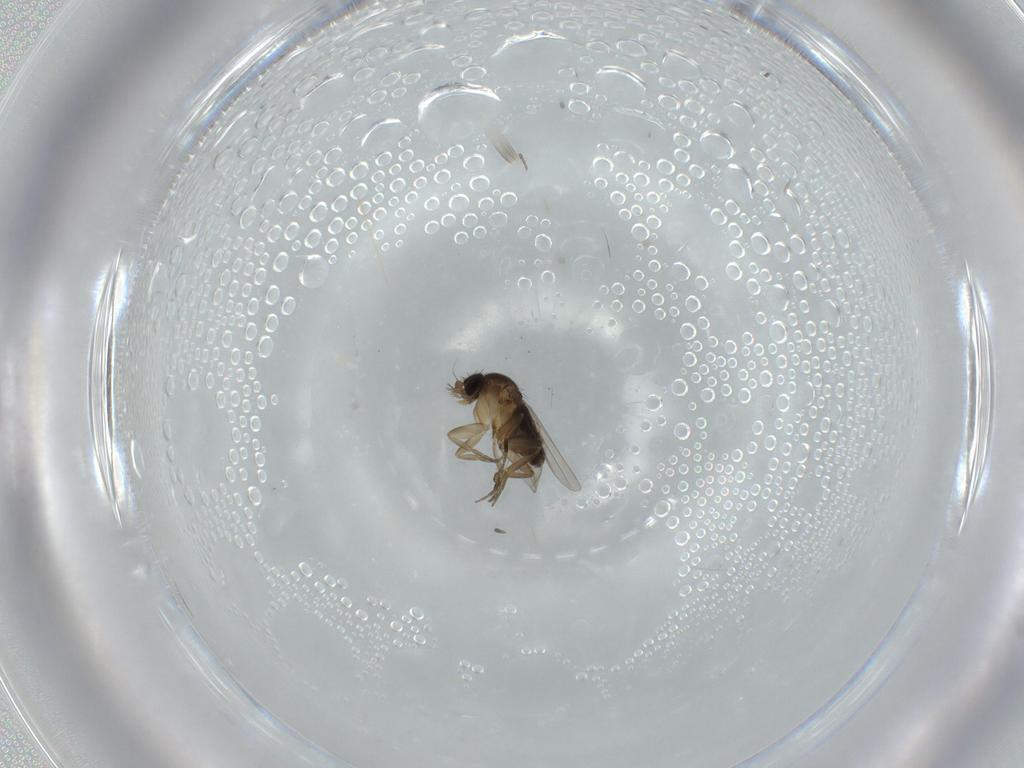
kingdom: Animalia
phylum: Arthropoda
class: Insecta
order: Diptera
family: Phoridae
